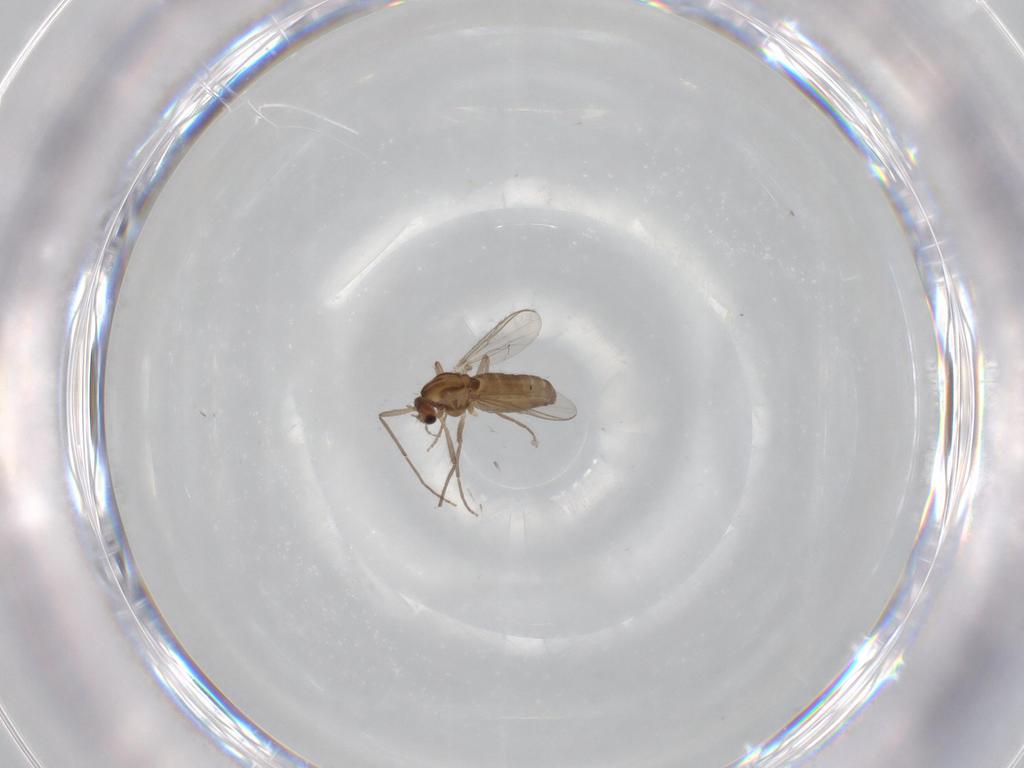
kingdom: Animalia
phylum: Arthropoda
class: Insecta
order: Diptera
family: Chironomidae
